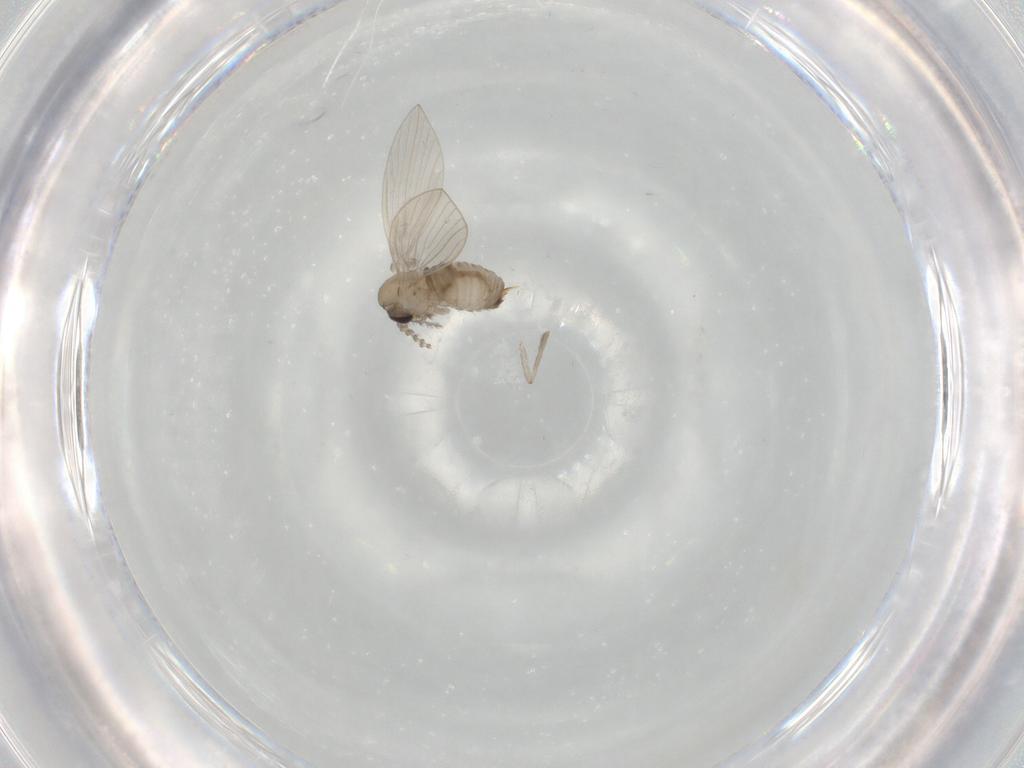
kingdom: Animalia
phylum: Arthropoda
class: Insecta
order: Diptera
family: Psychodidae
